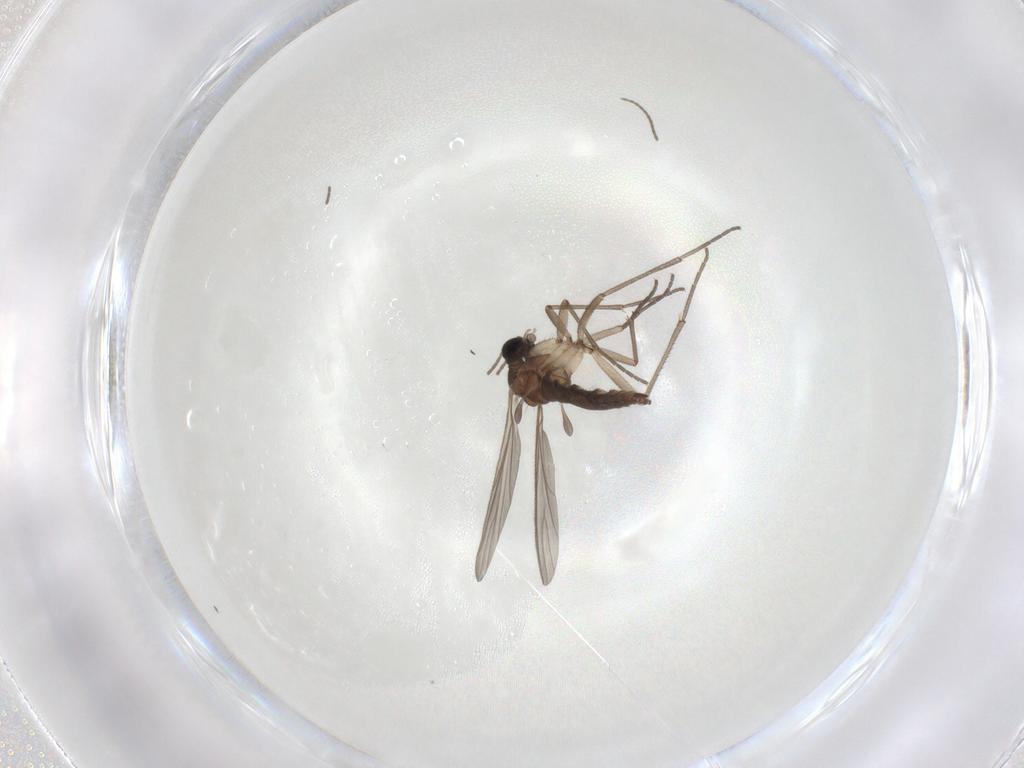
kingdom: Animalia
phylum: Arthropoda
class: Insecta
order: Diptera
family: Sciaridae
